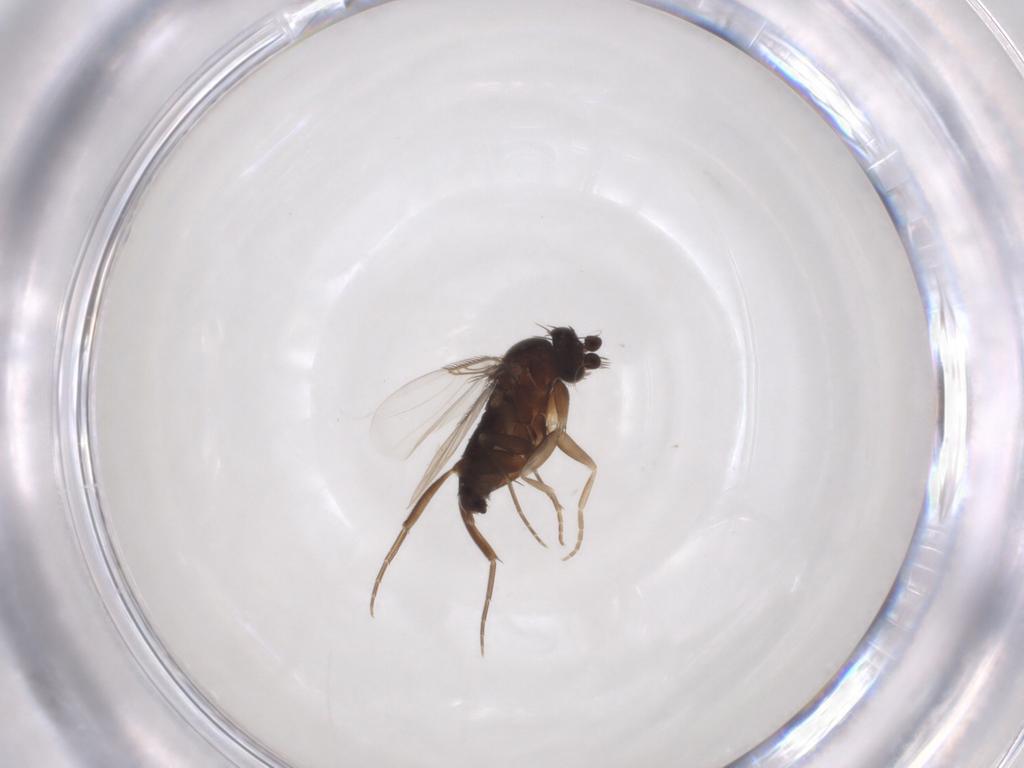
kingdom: Animalia
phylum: Arthropoda
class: Insecta
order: Diptera
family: Phoridae
